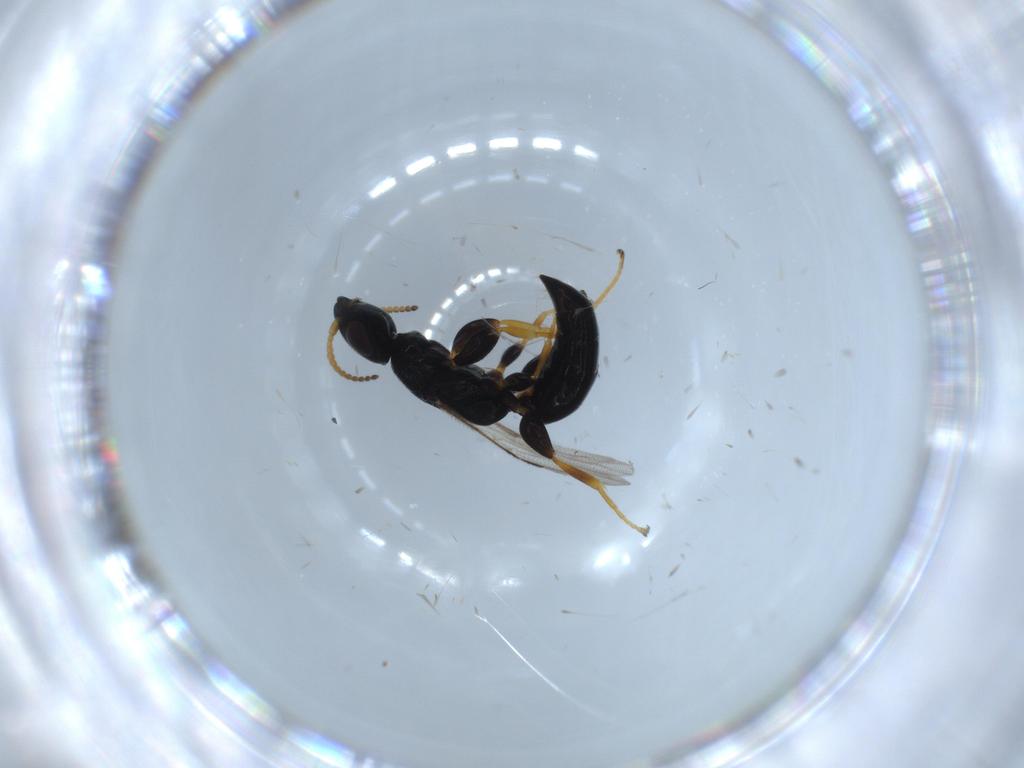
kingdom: Animalia
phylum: Arthropoda
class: Insecta
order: Hymenoptera
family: Bethylidae
